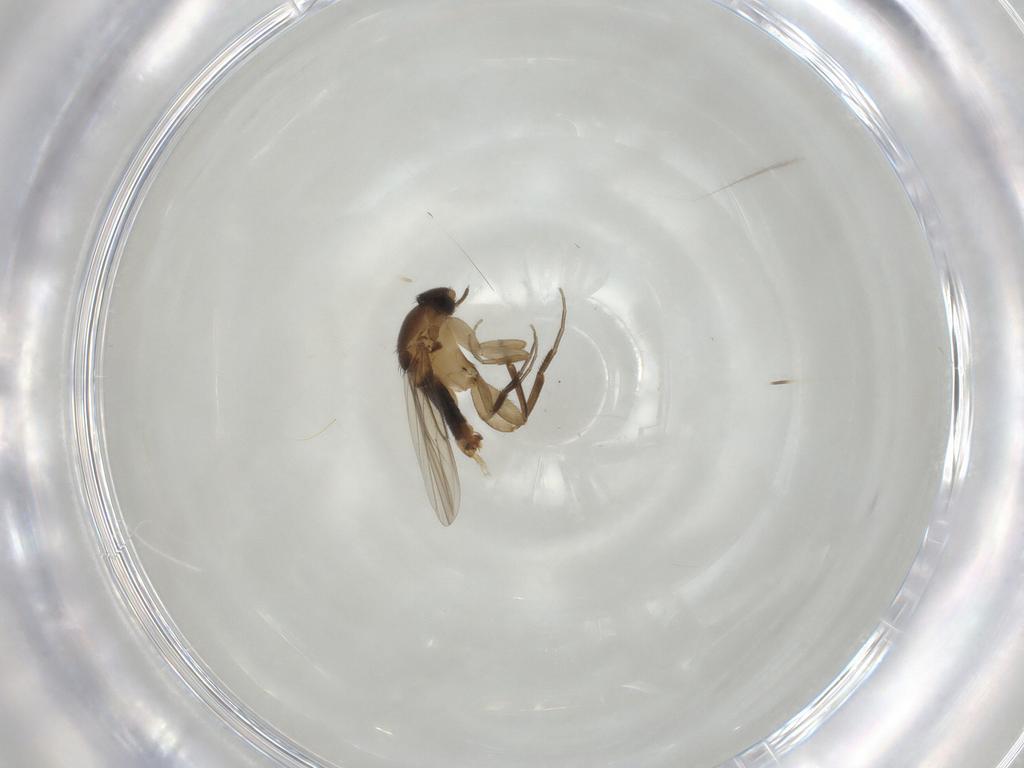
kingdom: Animalia
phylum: Arthropoda
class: Insecta
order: Diptera
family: Phoridae
